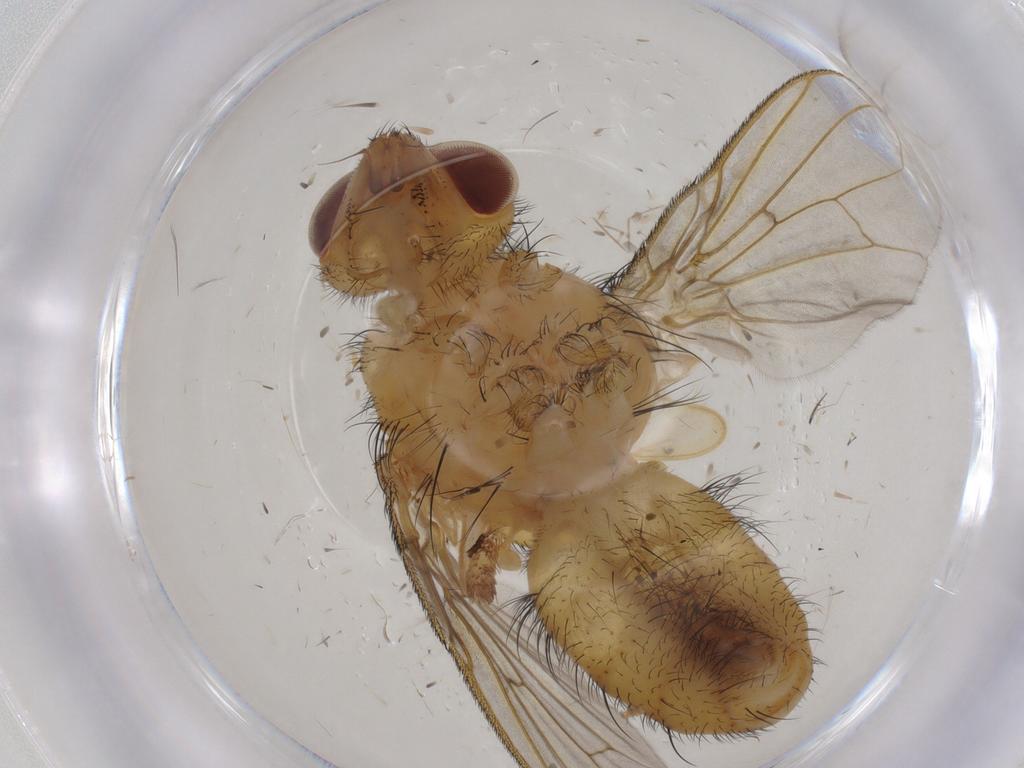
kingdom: Animalia
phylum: Arthropoda
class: Insecta
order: Diptera
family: Tachinidae
